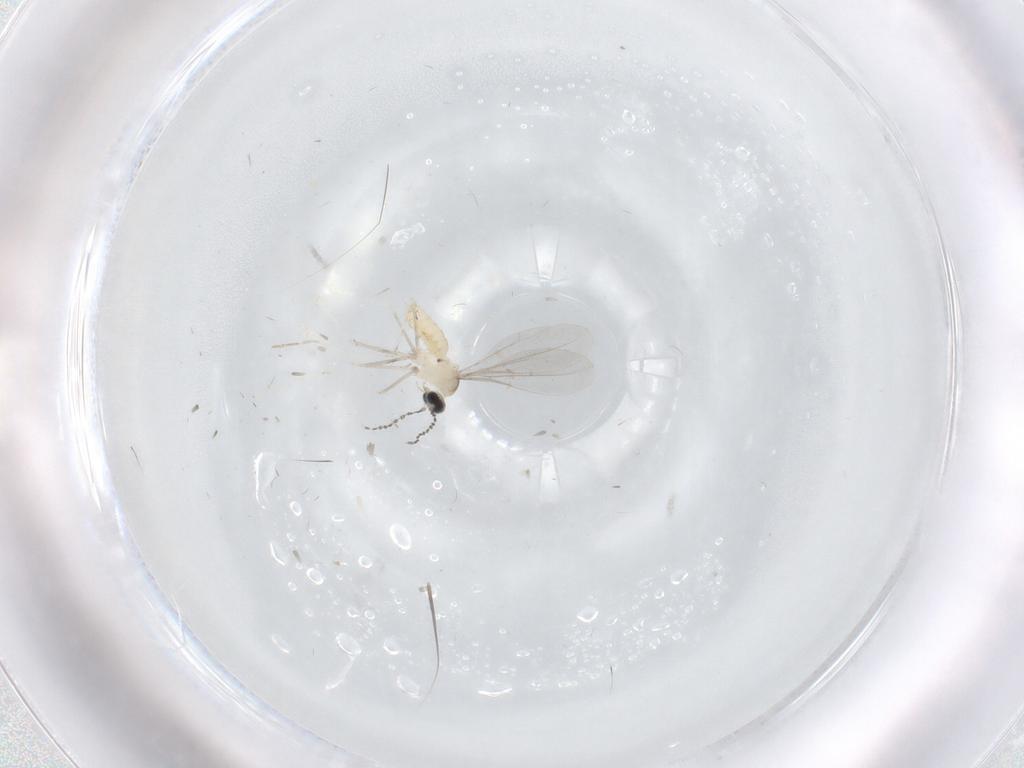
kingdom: Animalia
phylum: Arthropoda
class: Insecta
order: Diptera
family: Cecidomyiidae
